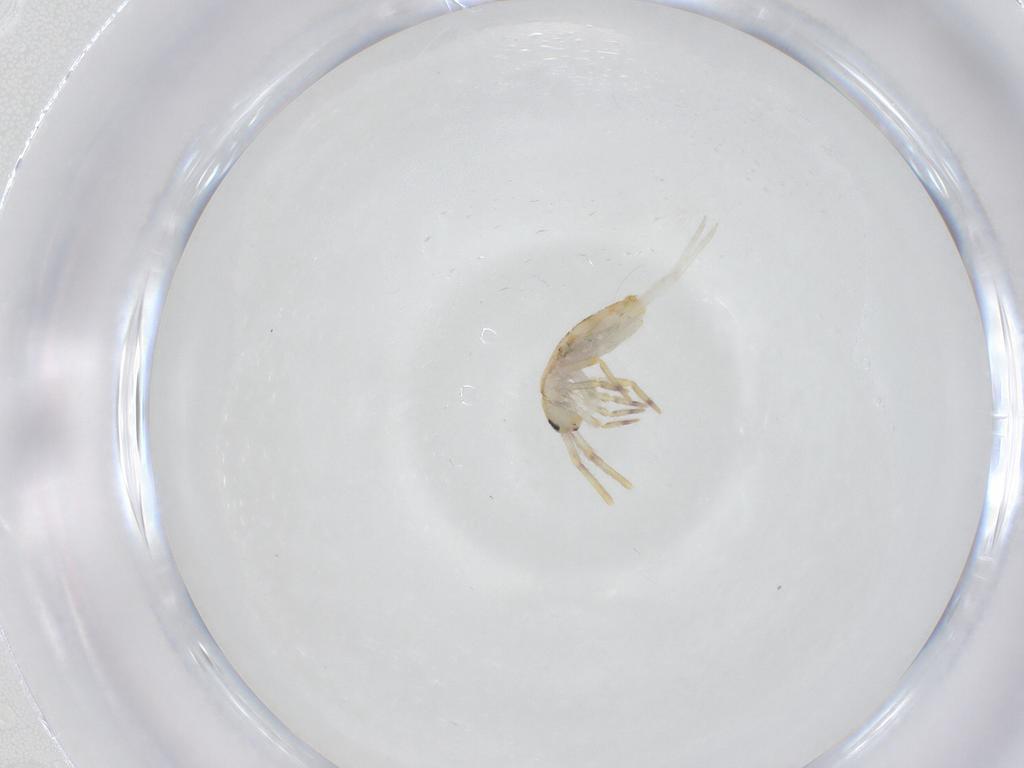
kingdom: Animalia
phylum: Arthropoda
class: Collembola
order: Entomobryomorpha
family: Entomobryidae
